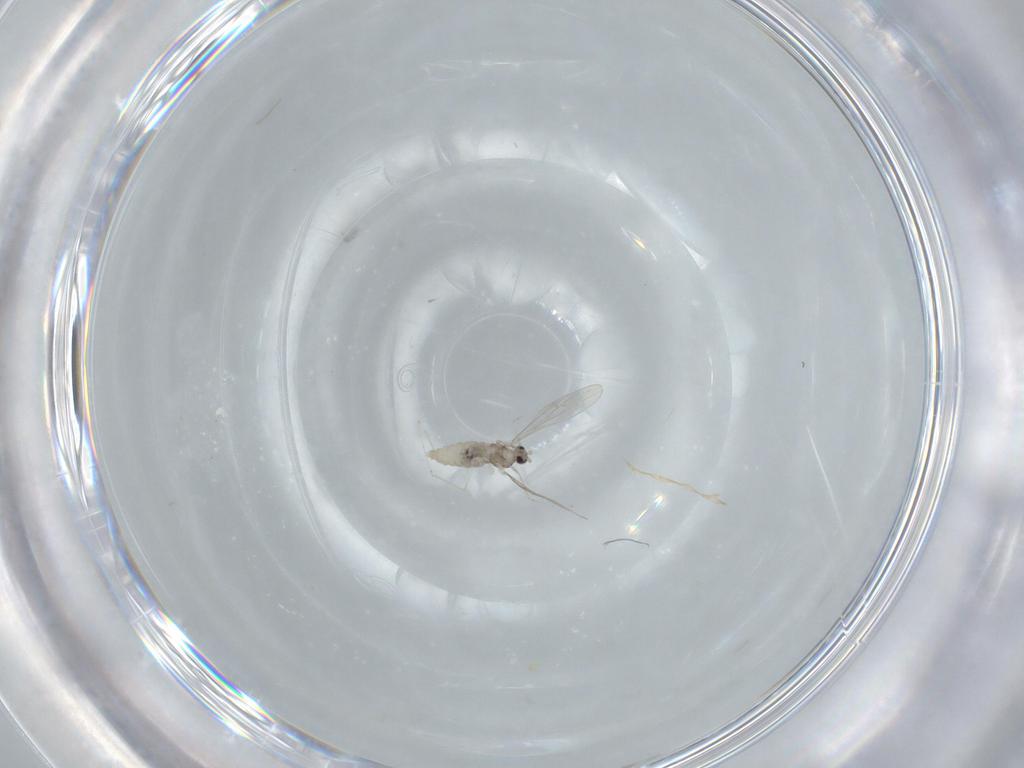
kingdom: Animalia
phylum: Arthropoda
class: Insecta
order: Diptera
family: Cecidomyiidae
